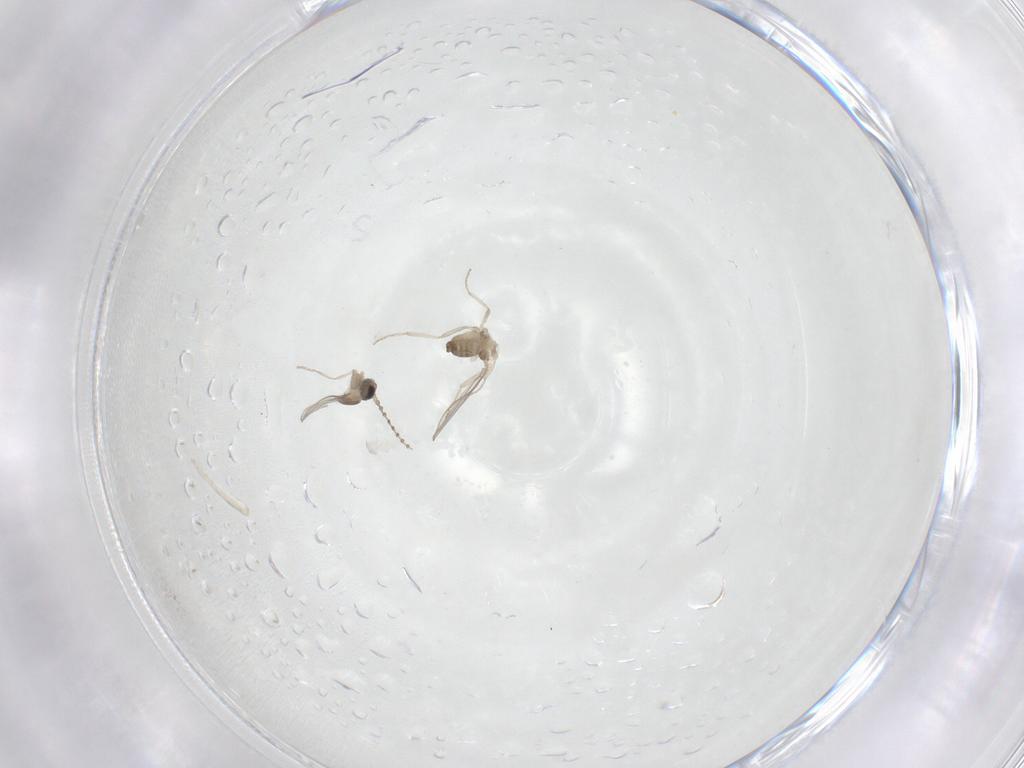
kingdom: Animalia
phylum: Arthropoda
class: Insecta
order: Diptera
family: Cecidomyiidae
